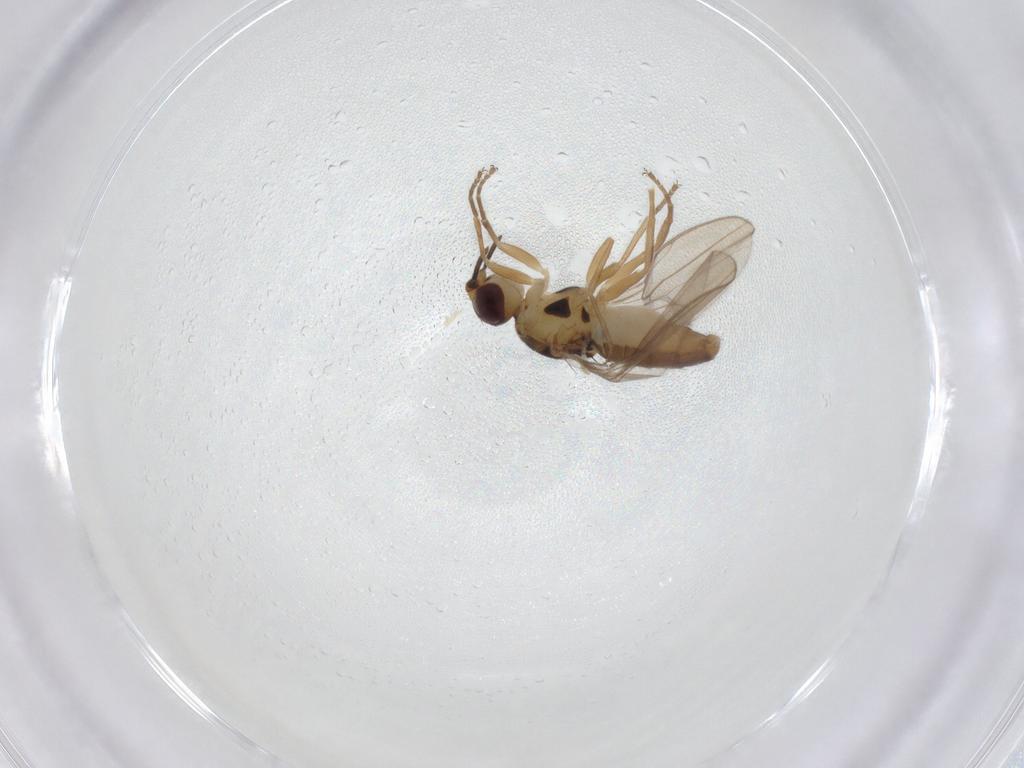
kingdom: Animalia
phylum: Arthropoda
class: Insecta
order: Diptera
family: Chloropidae
